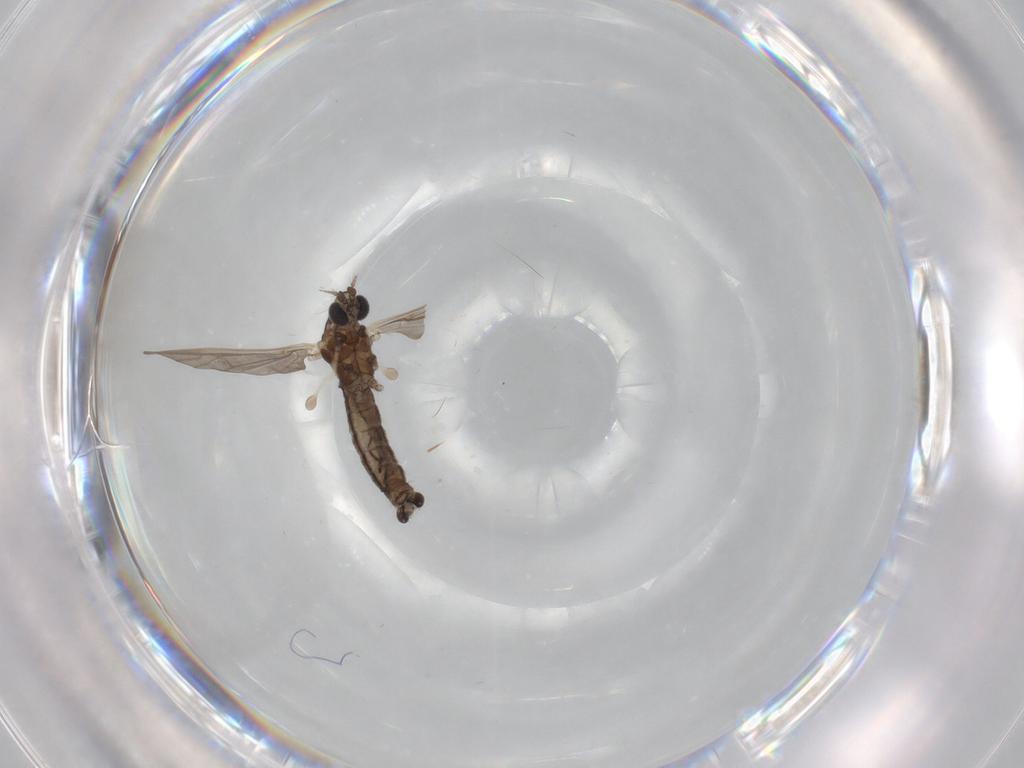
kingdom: Animalia
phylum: Arthropoda
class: Insecta
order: Diptera
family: Limoniidae
